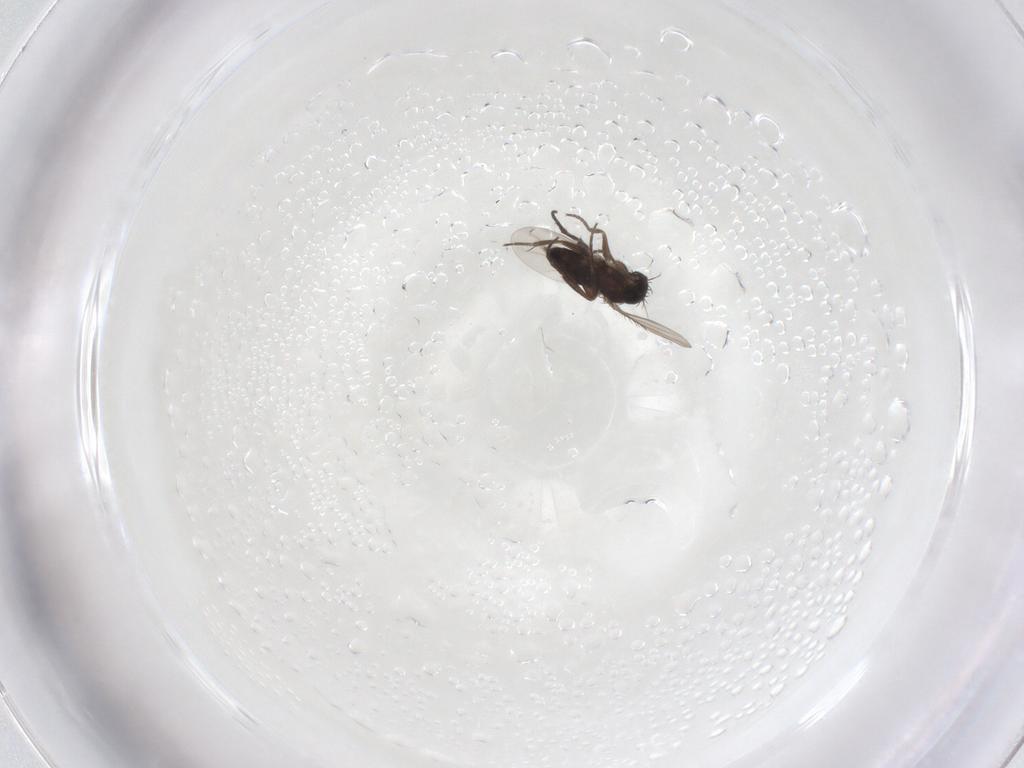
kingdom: Animalia
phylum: Arthropoda
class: Insecta
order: Diptera
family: Phoridae
